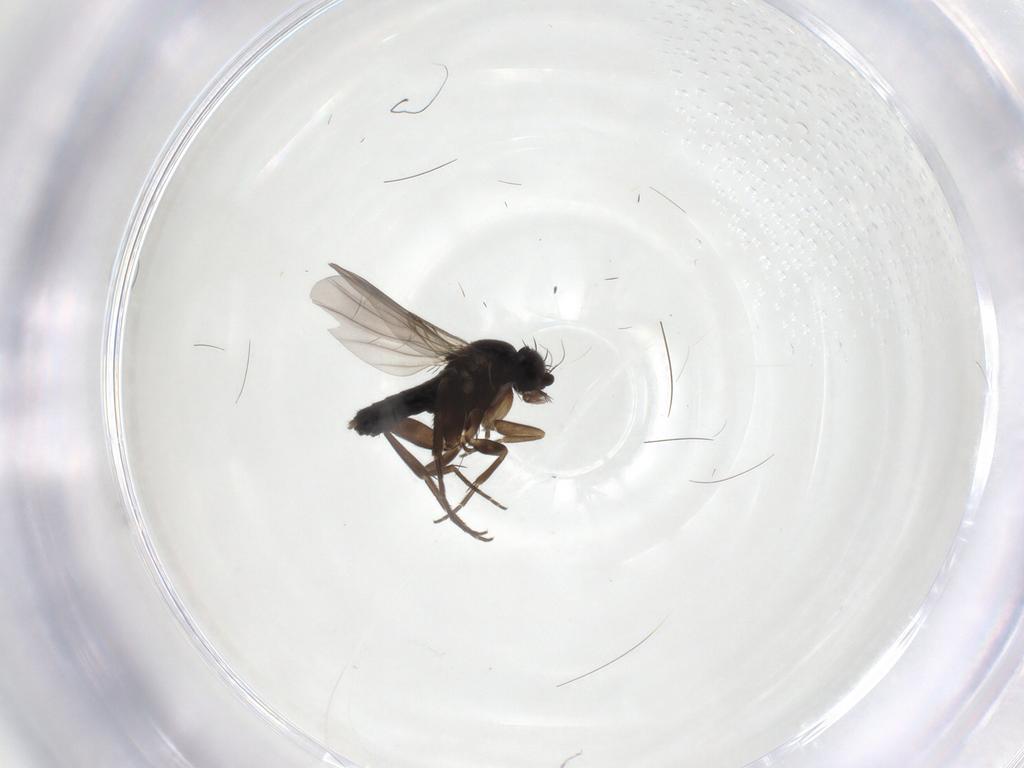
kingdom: Animalia
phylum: Arthropoda
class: Insecta
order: Diptera
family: Phoridae
